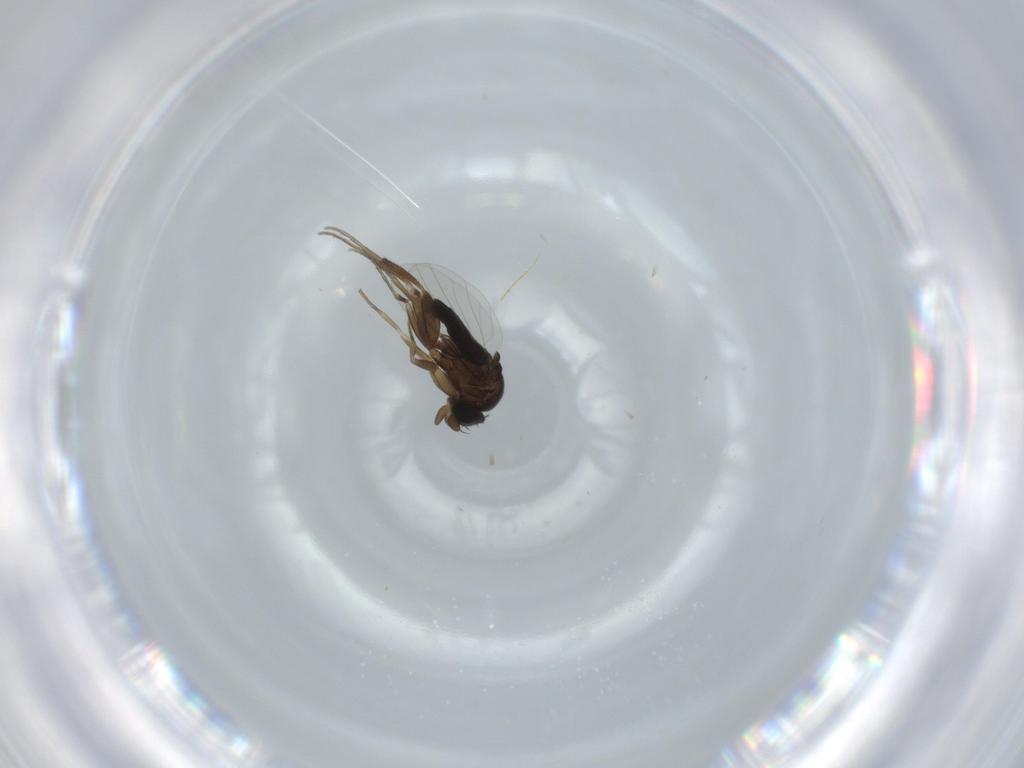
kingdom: Animalia
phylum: Arthropoda
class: Insecta
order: Diptera
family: Phoridae
